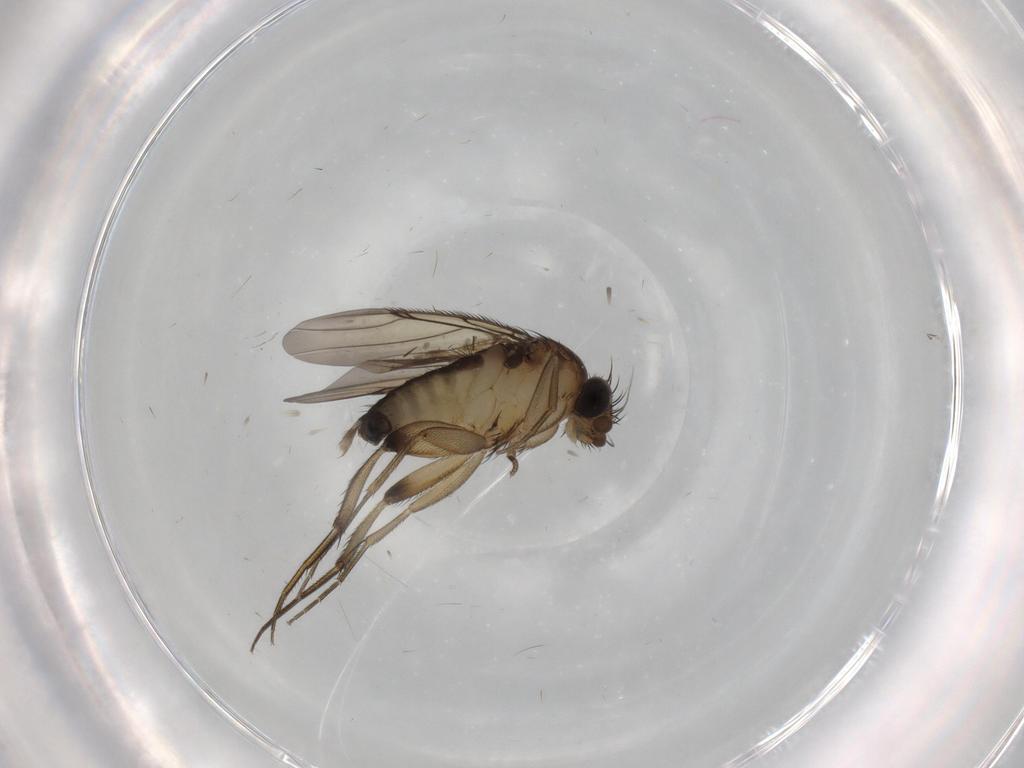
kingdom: Animalia
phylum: Arthropoda
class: Insecta
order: Diptera
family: Phoridae
